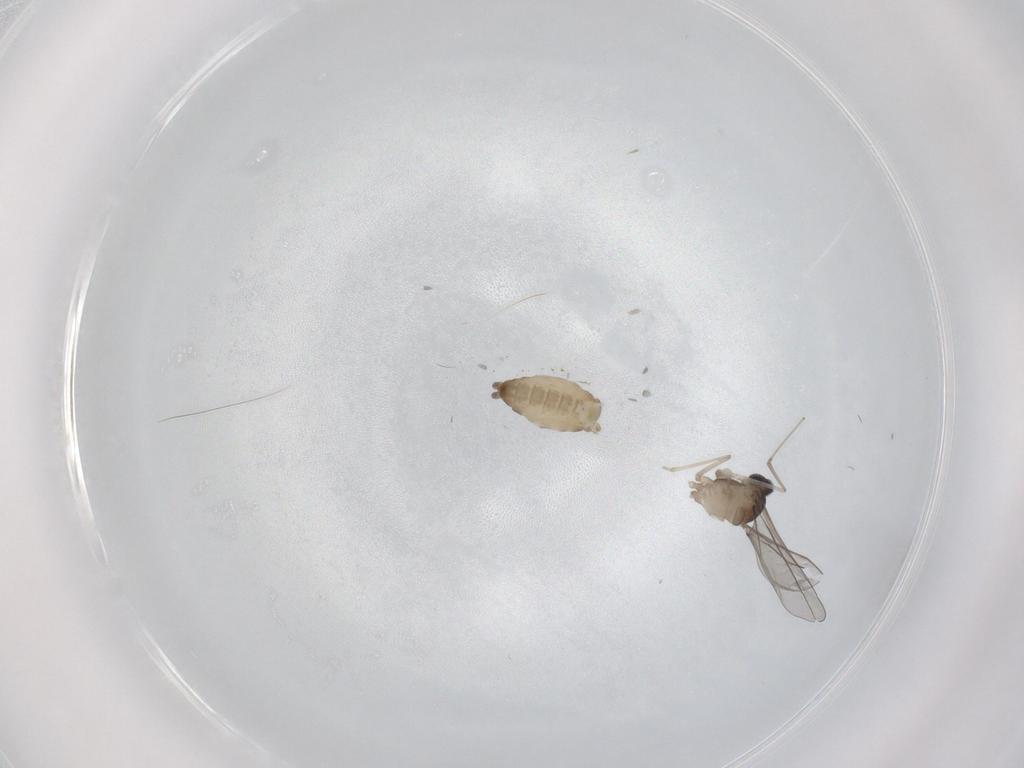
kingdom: Animalia
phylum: Arthropoda
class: Insecta
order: Diptera
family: Cecidomyiidae
